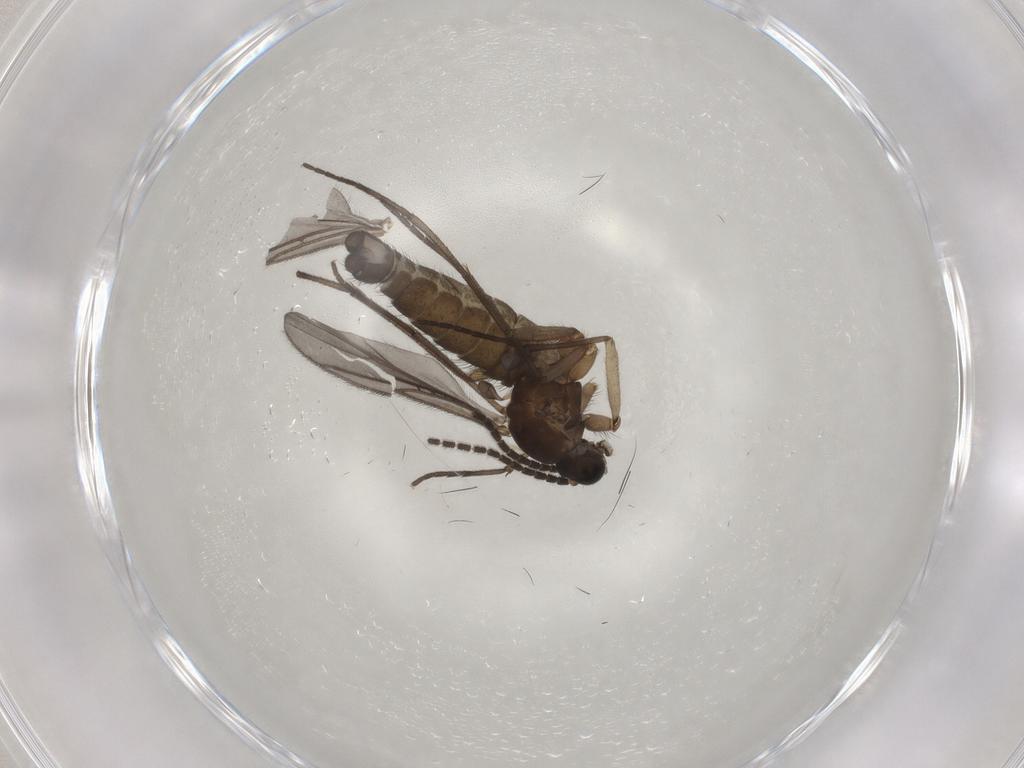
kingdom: Animalia
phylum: Arthropoda
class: Insecta
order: Diptera
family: Sciaridae
